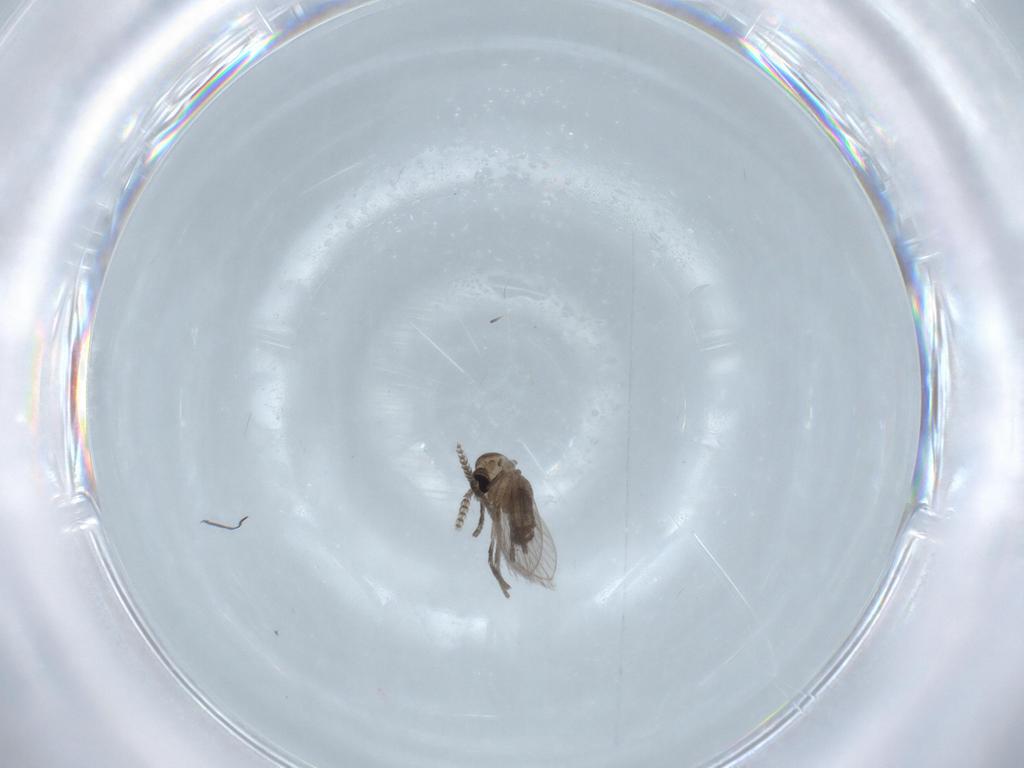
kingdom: Animalia
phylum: Arthropoda
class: Insecta
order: Diptera
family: Psychodidae
